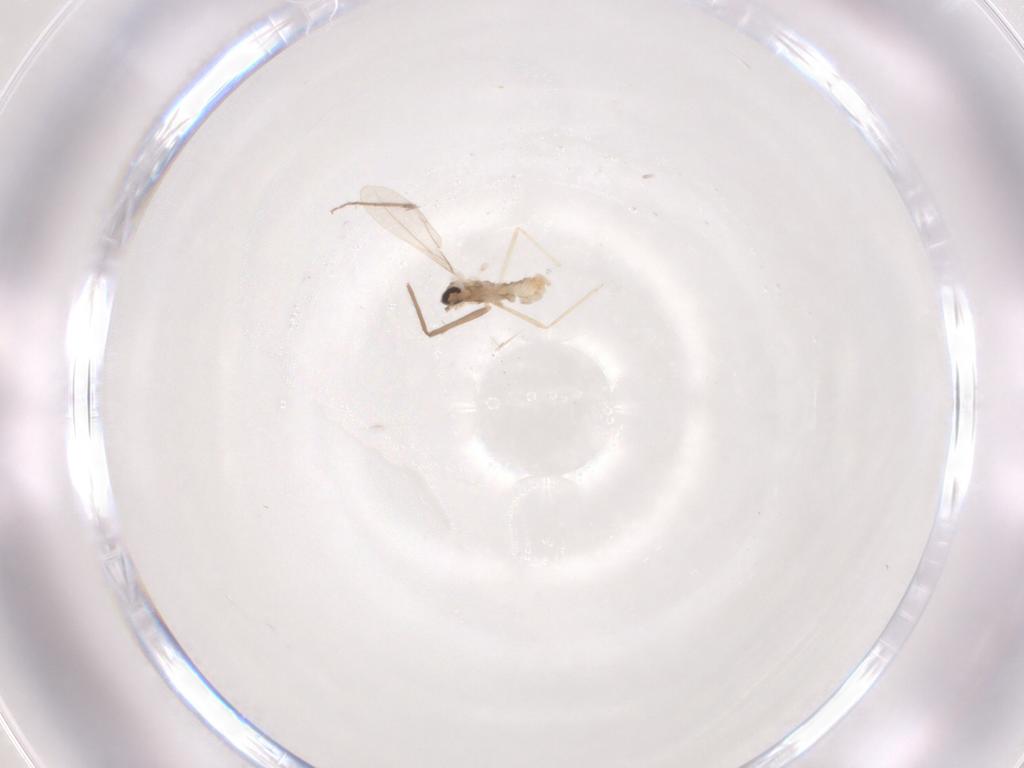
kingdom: Animalia
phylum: Arthropoda
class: Insecta
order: Diptera
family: Cecidomyiidae
